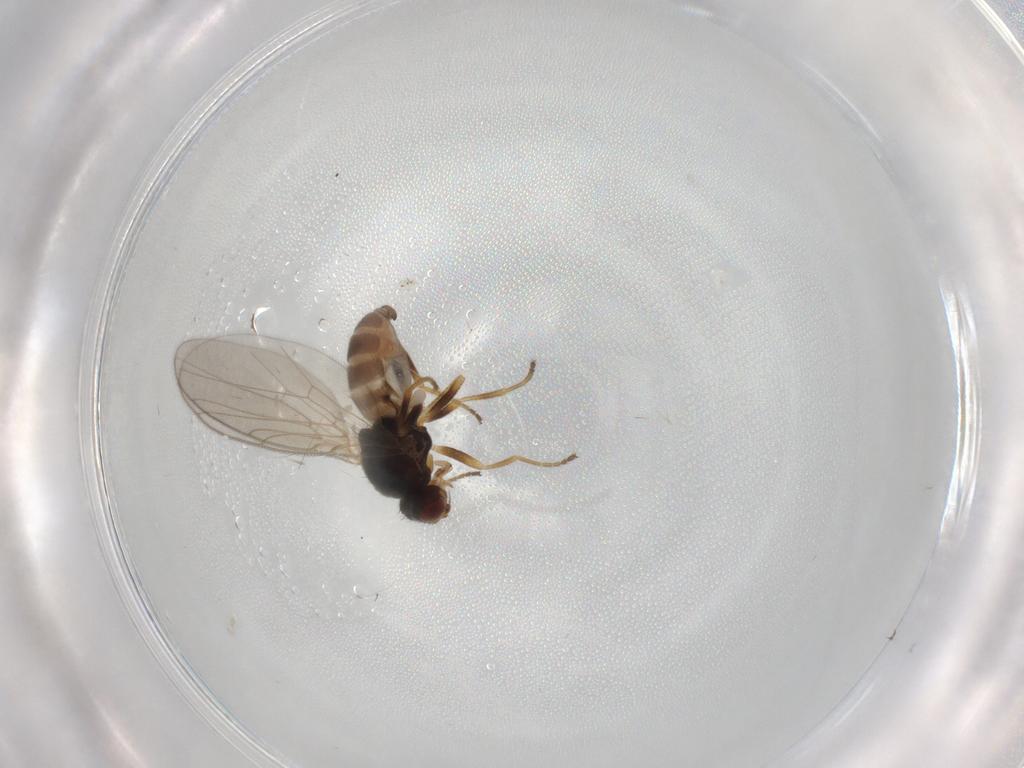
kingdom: Animalia
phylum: Arthropoda
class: Insecta
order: Diptera
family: Chloropidae
